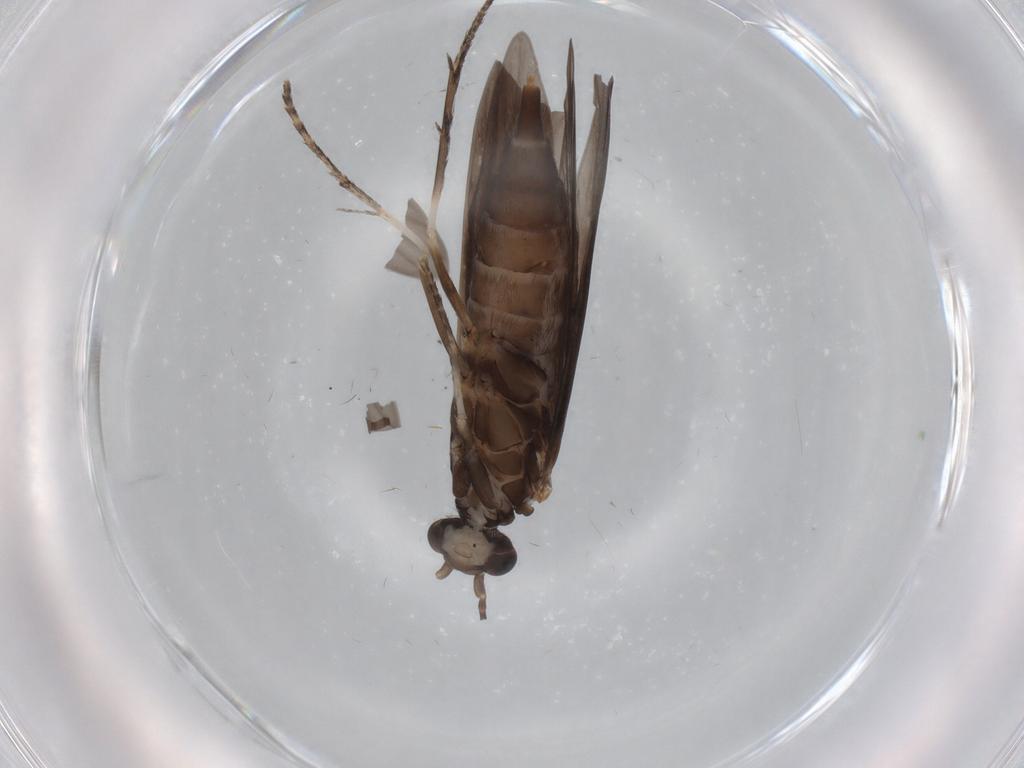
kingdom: Animalia
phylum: Arthropoda
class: Insecta
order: Trichoptera
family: Xiphocentronidae
